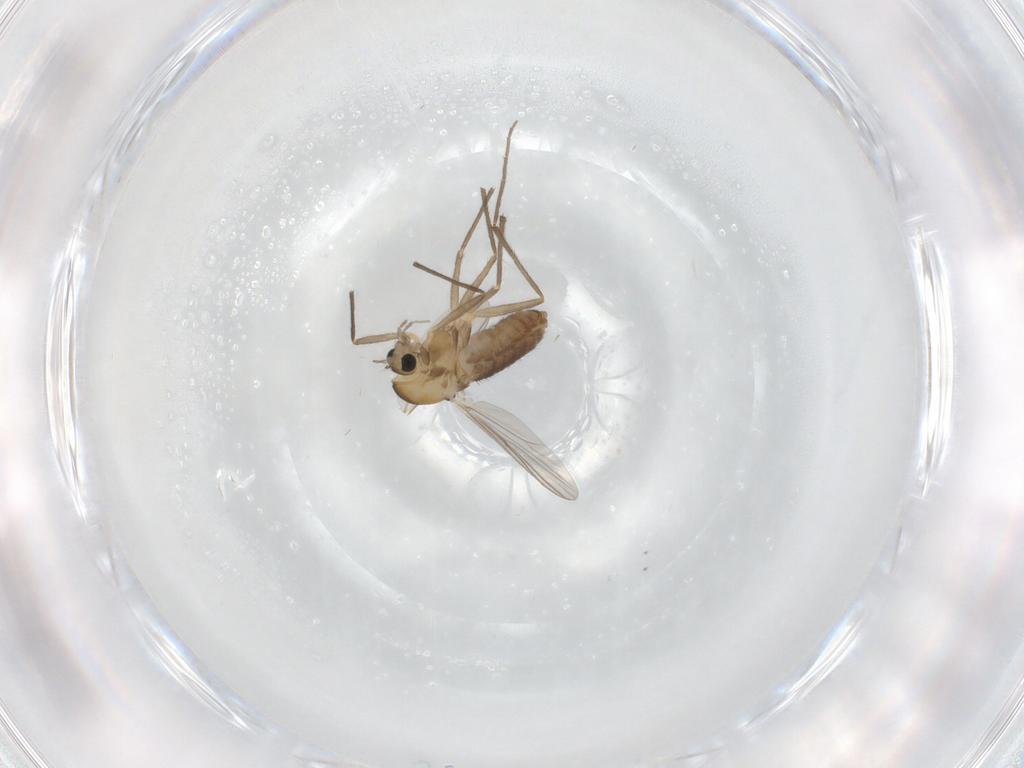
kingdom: Animalia
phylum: Arthropoda
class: Insecta
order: Diptera
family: Chironomidae
